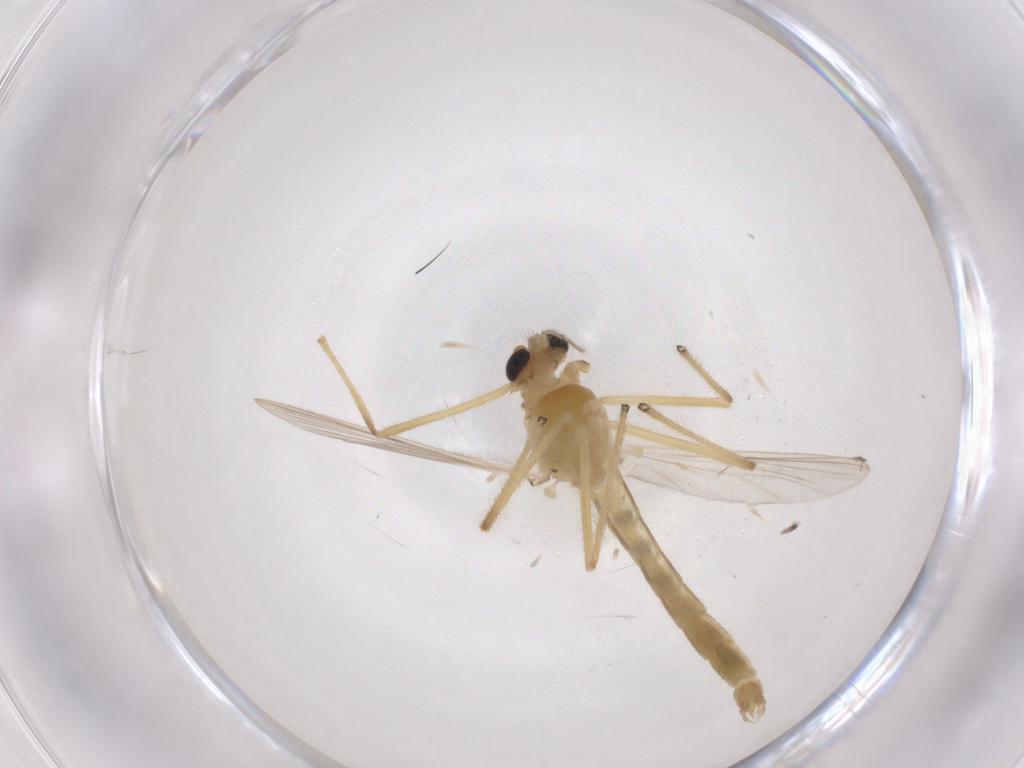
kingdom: Animalia
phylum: Arthropoda
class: Insecta
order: Diptera
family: Chironomidae
